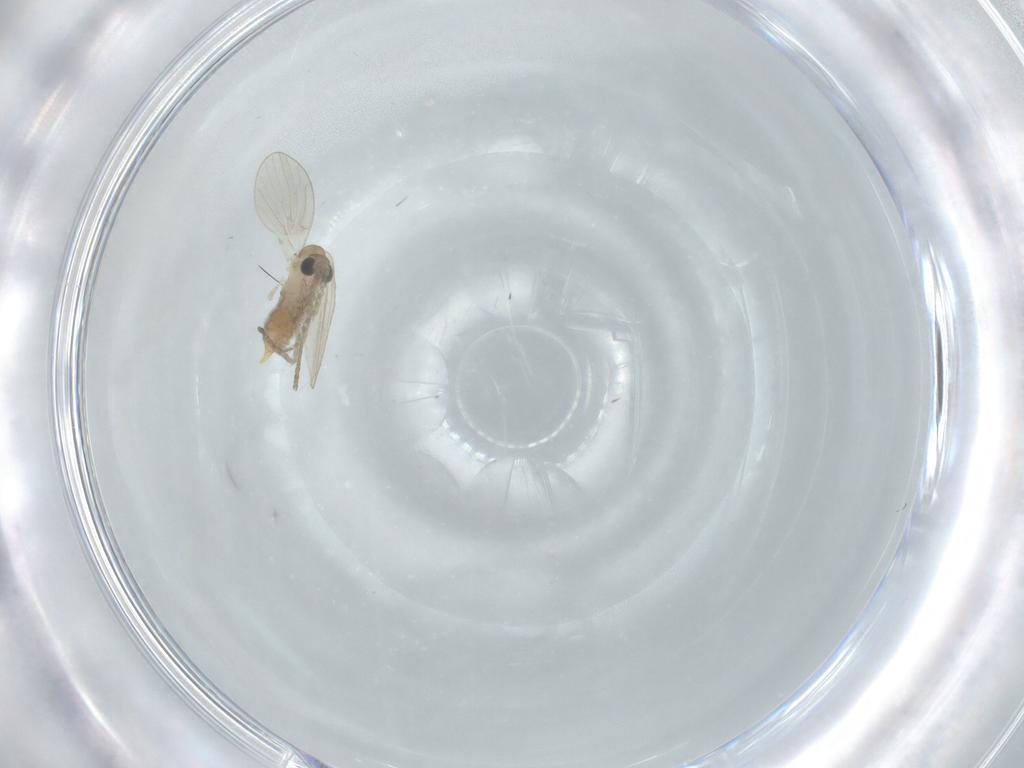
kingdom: Animalia
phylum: Arthropoda
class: Insecta
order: Diptera
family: Psychodidae
